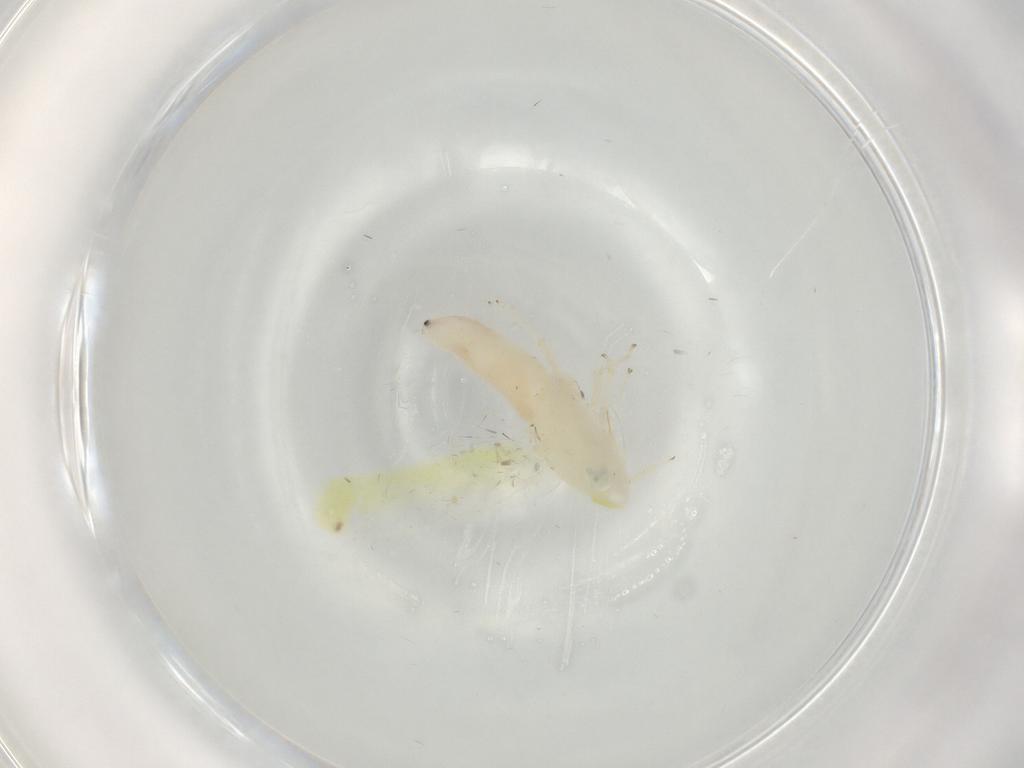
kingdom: Animalia
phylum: Arthropoda
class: Insecta
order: Hemiptera
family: Cicadellidae
